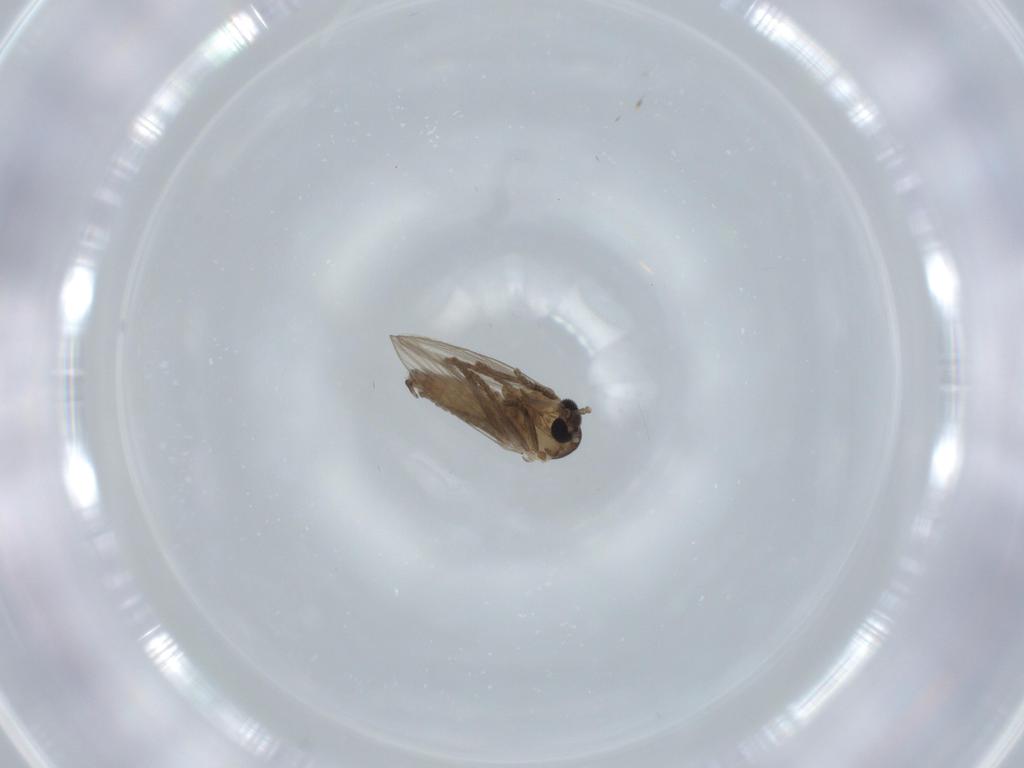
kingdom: Animalia
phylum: Arthropoda
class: Insecta
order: Diptera
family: Psychodidae
